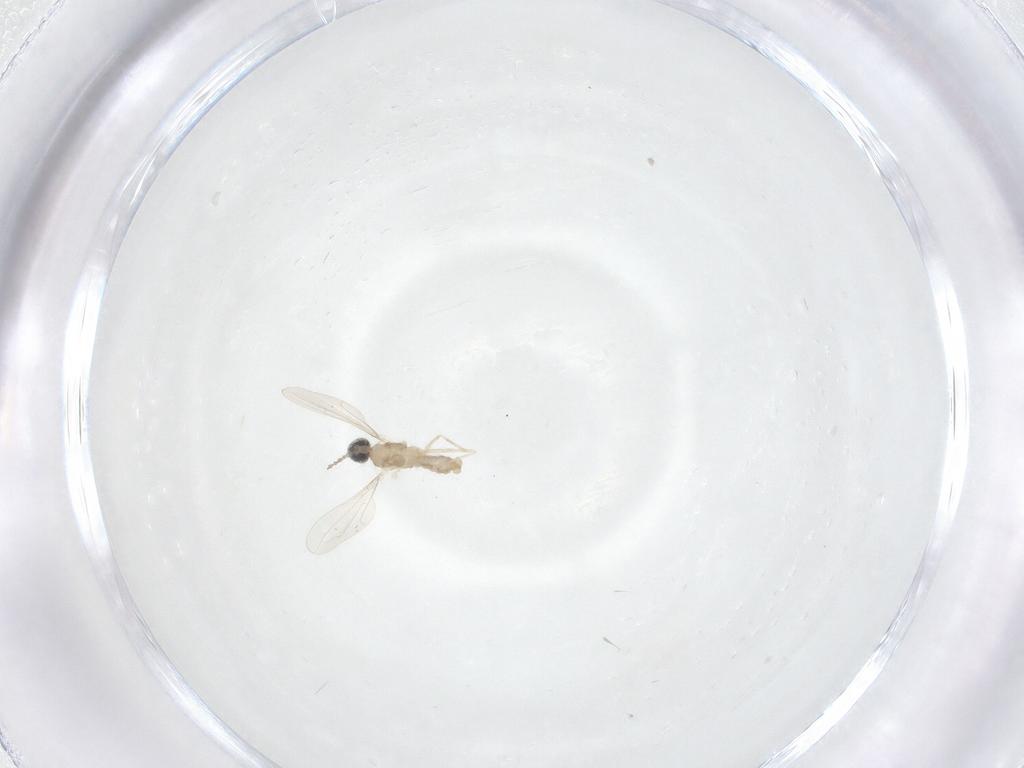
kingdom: Animalia
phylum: Arthropoda
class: Insecta
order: Diptera
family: Cecidomyiidae
